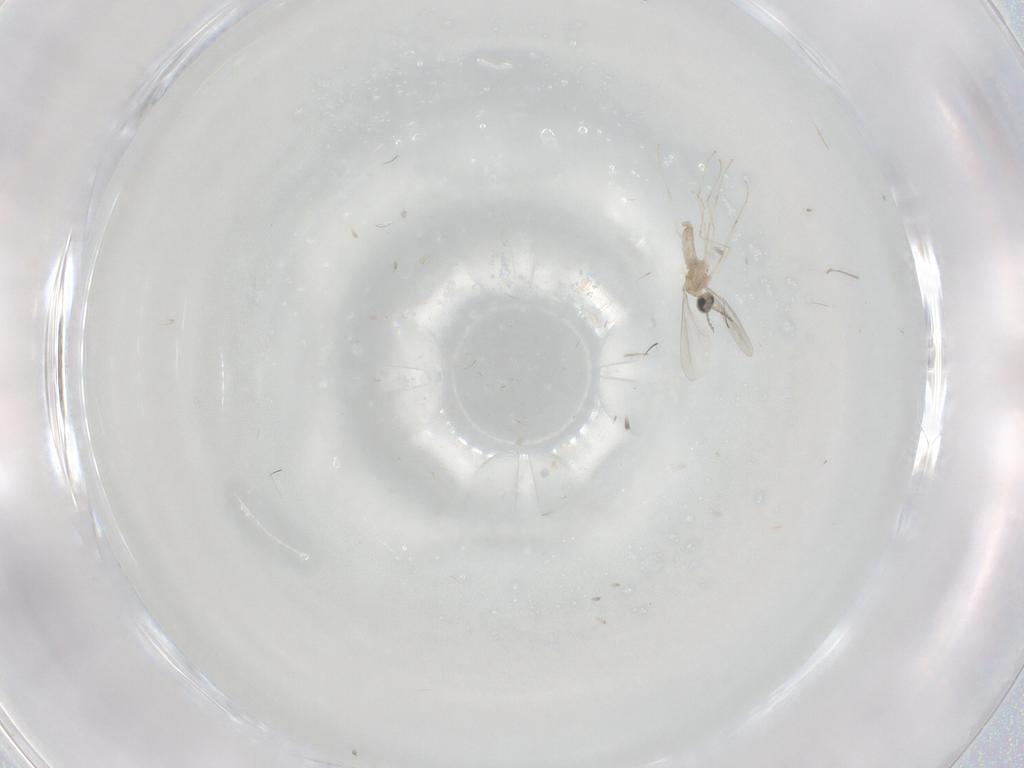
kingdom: Animalia
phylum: Arthropoda
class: Insecta
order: Diptera
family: Cecidomyiidae
